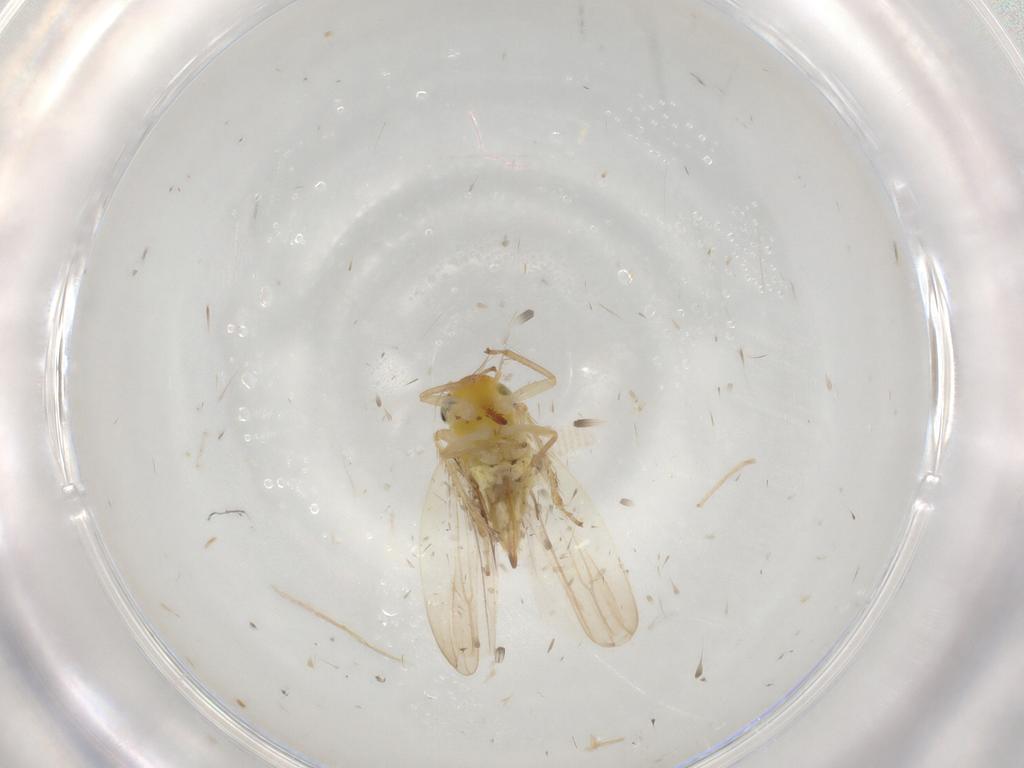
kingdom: Animalia
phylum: Arthropoda
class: Insecta
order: Hemiptera
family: Cicadellidae
